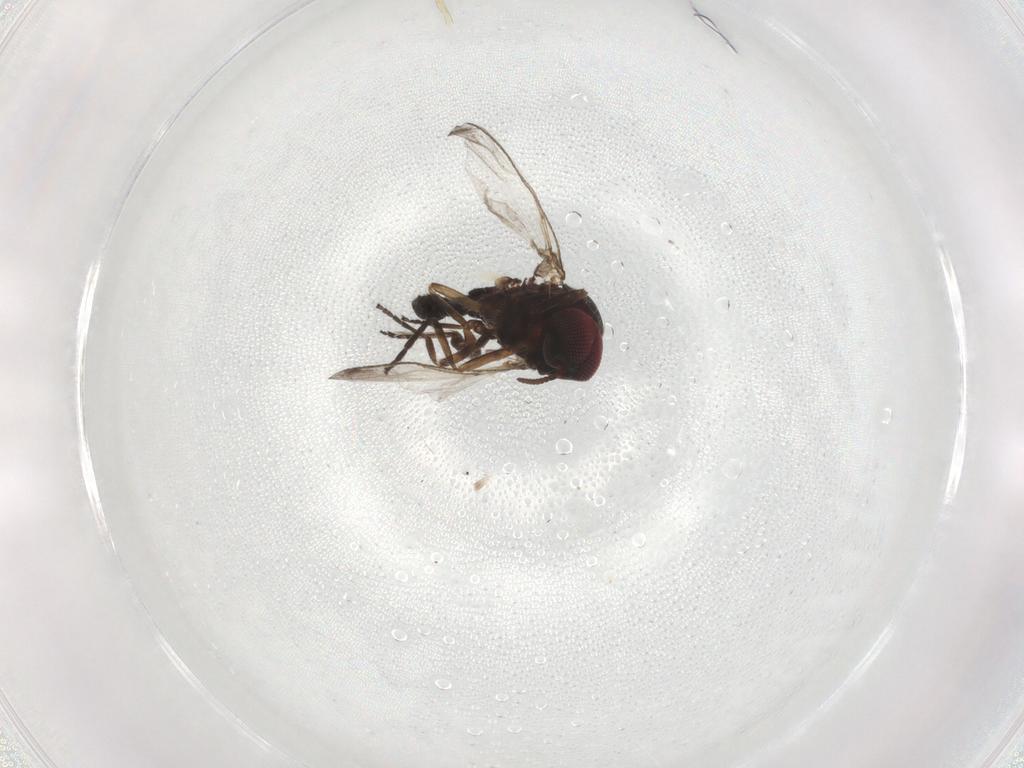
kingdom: Animalia
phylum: Arthropoda
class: Insecta
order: Diptera
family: Simuliidae
